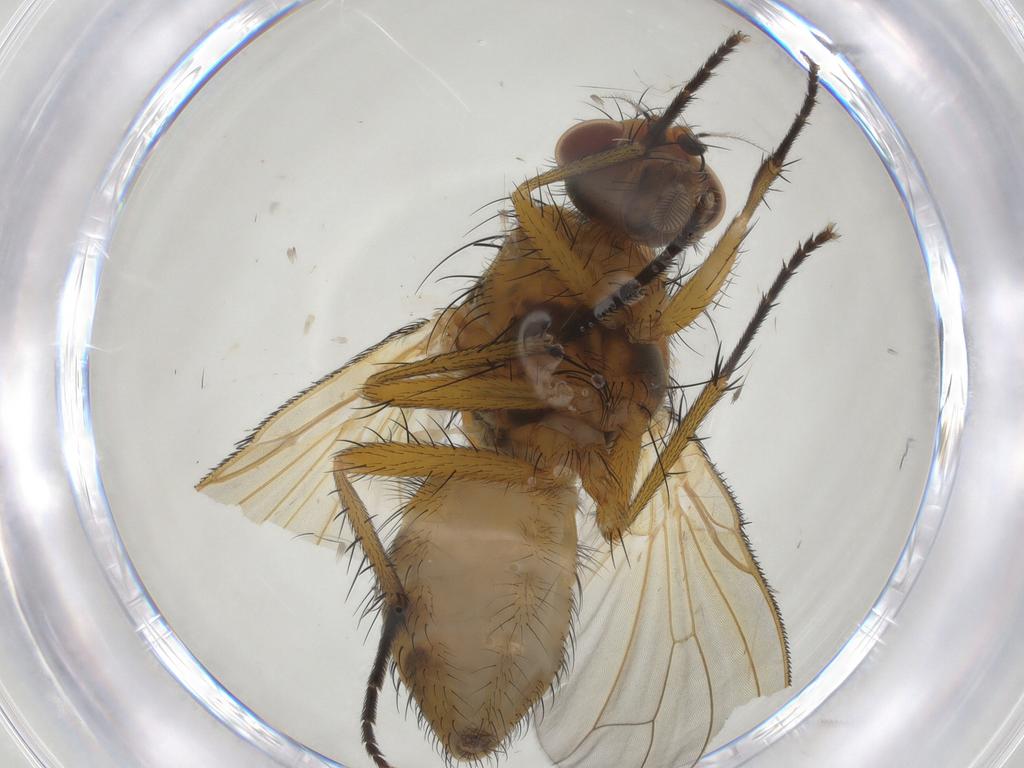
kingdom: Animalia
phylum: Arthropoda
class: Insecta
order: Diptera
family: Anthomyiidae
